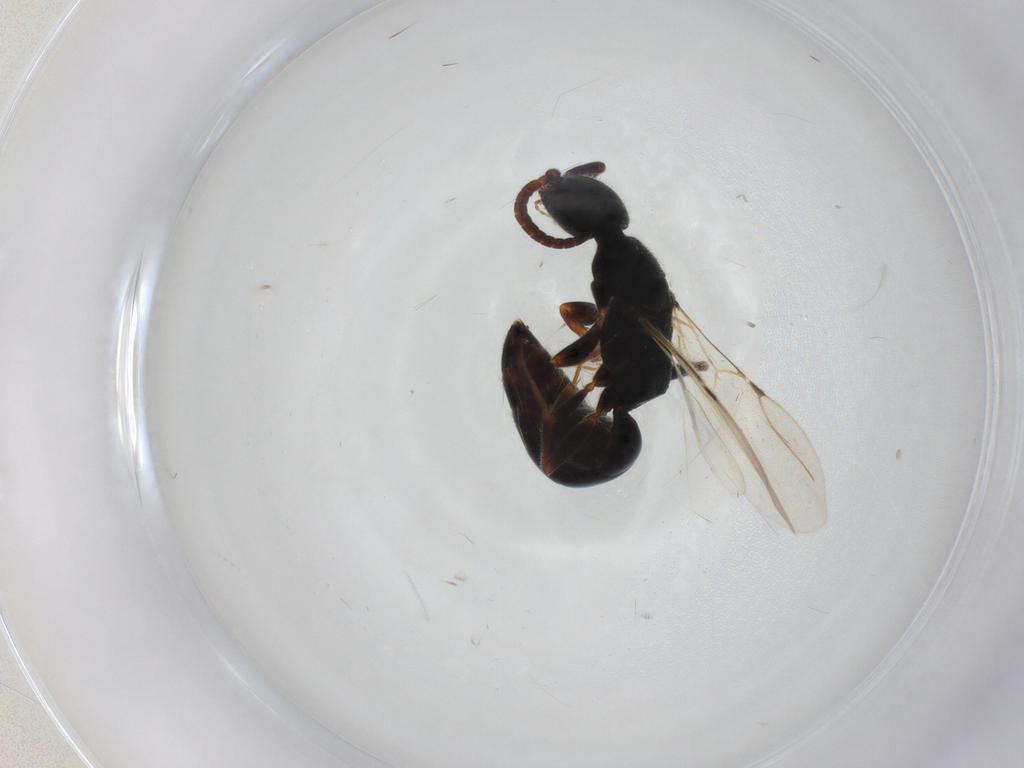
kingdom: Animalia
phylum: Arthropoda
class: Insecta
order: Hymenoptera
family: Bethylidae
